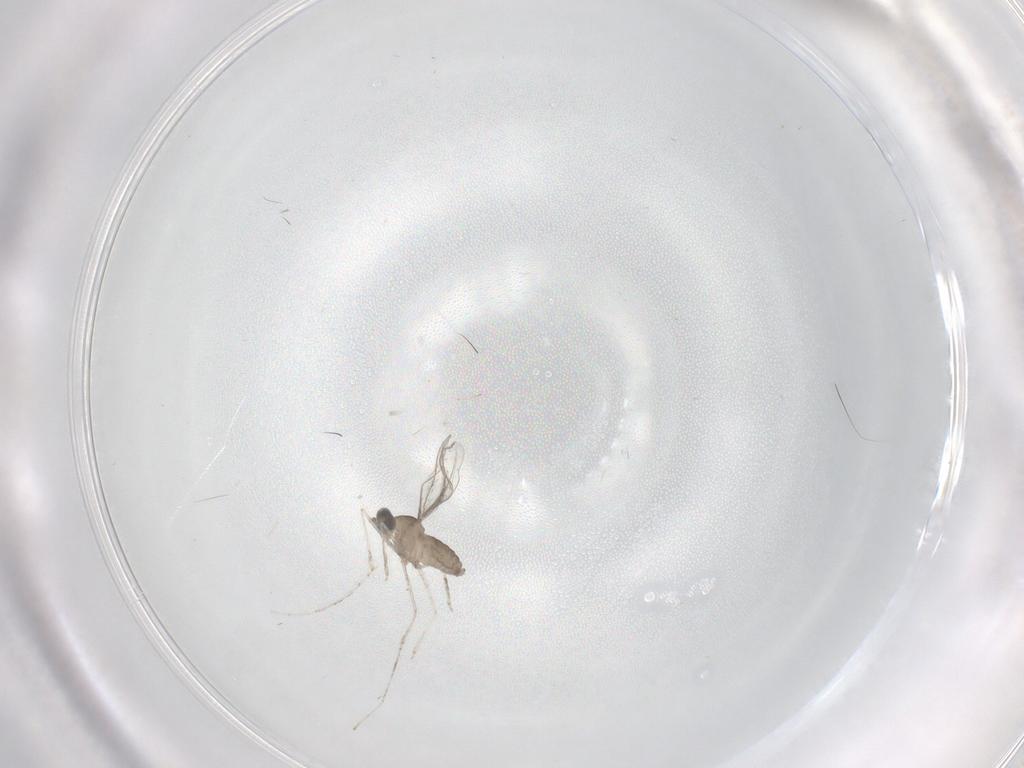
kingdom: Animalia
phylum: Arthropoda
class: Insecta
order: Diptera
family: Cecidomyiidae
